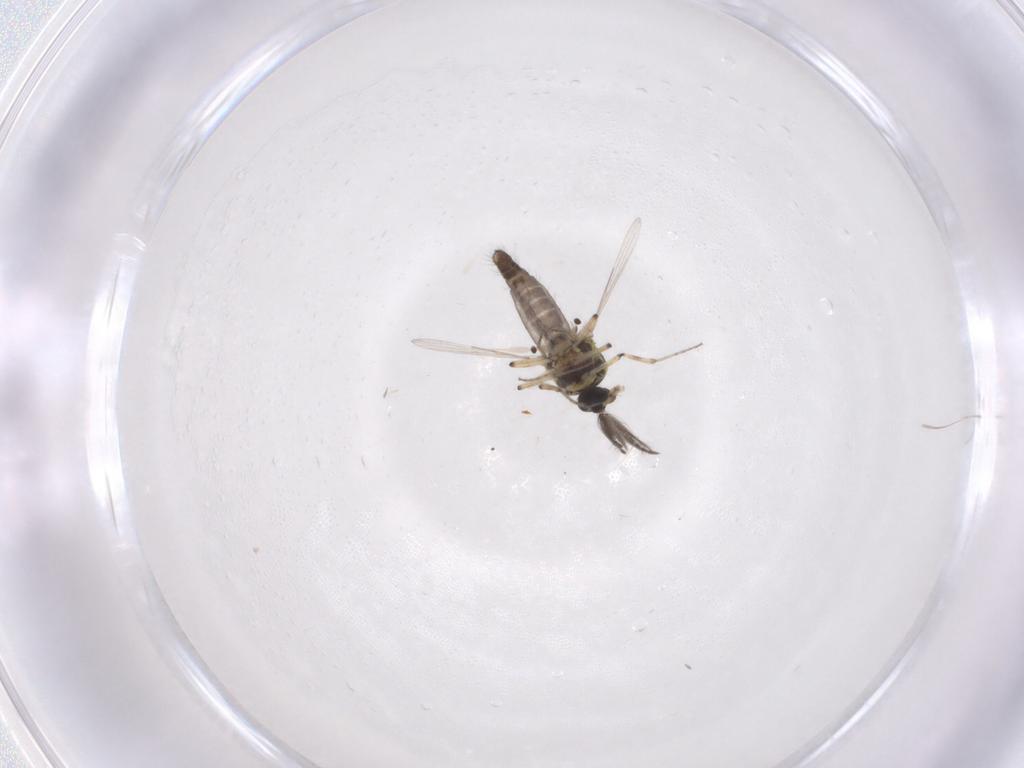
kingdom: Animalia
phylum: Arthropoda
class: Insecta
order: Diptera
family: Ceratopogonidae
